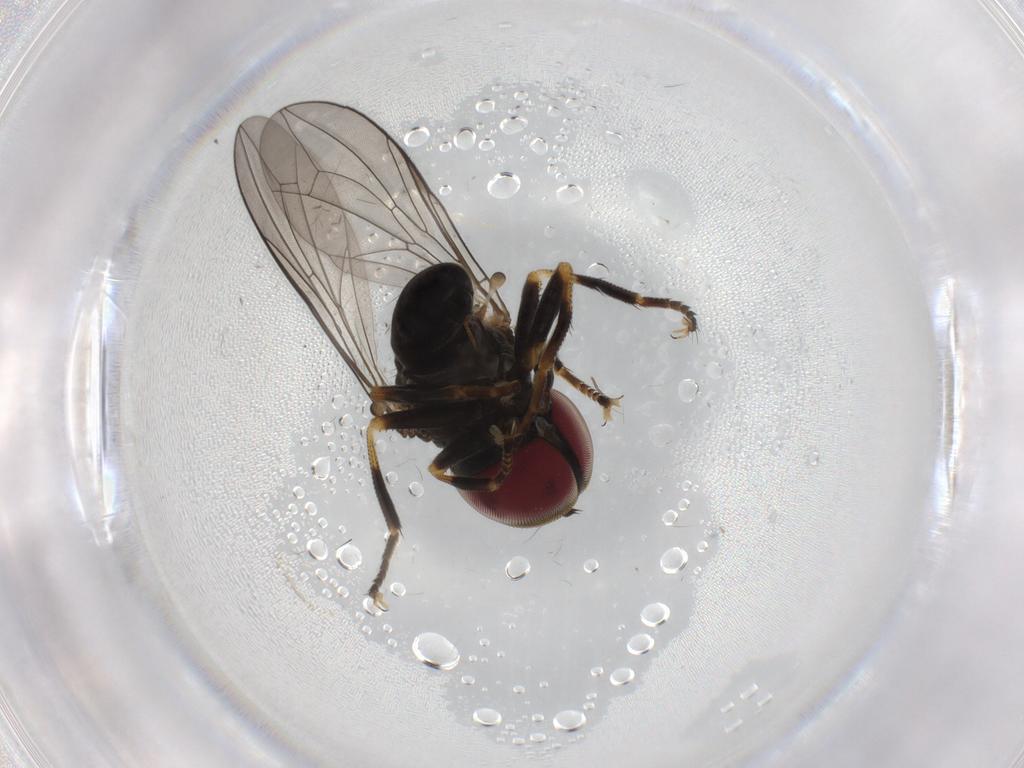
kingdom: Animalia
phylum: Arthropoda
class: Insecta
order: Diptera
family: Pipunculidae
